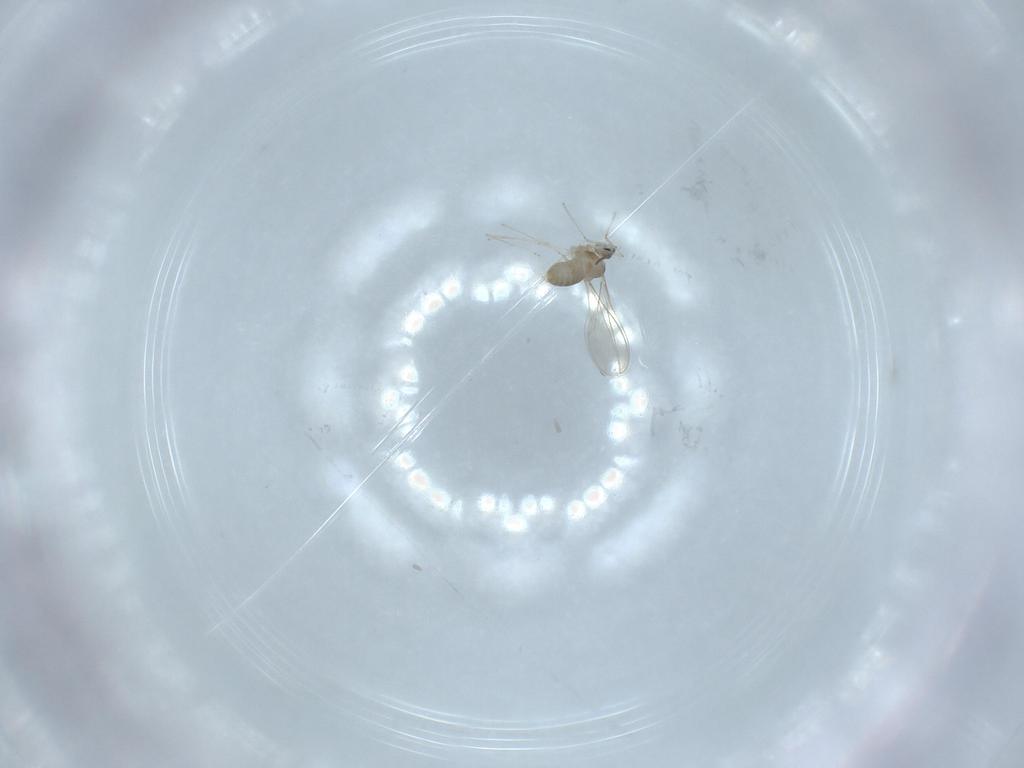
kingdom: Animalia
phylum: Arthropoda
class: Insecta
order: Diptera
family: Cecidomyiidae
